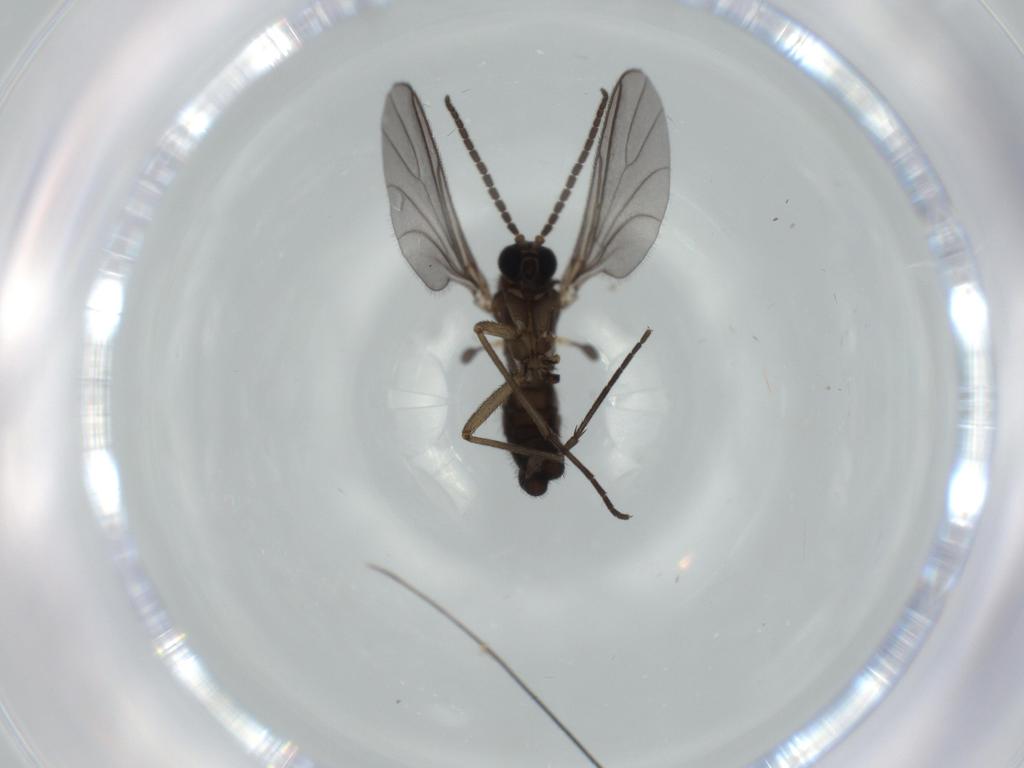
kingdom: Animalia
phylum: Arthropoda
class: Insecta
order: Diptera
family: Sciaridae
